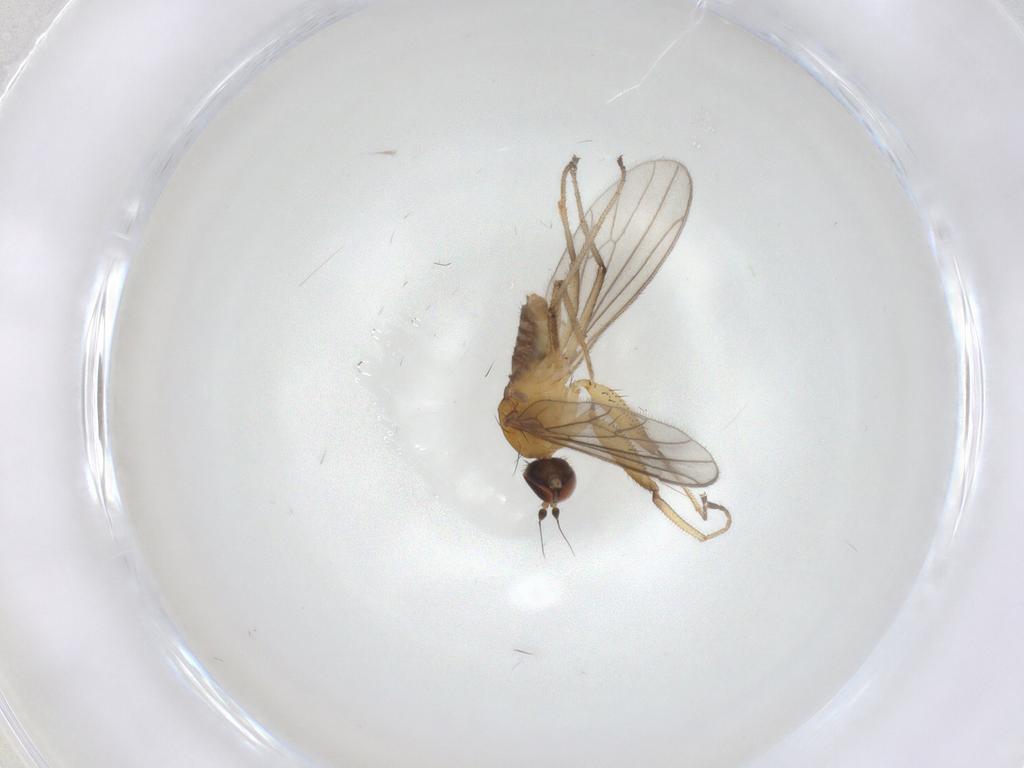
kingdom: Animalia
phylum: Arthropoda
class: Insecta
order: Diptera
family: Empididae
